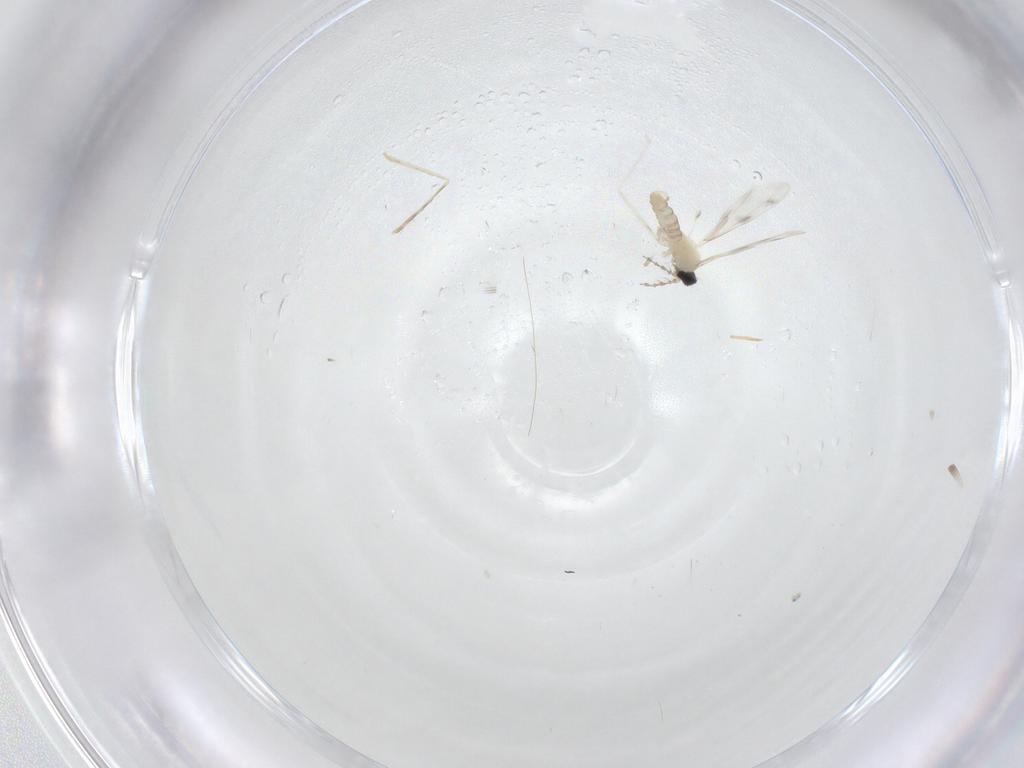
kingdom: Animalia
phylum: Arthropoda
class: Insecta
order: Diptera
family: Cecidomyiidae
